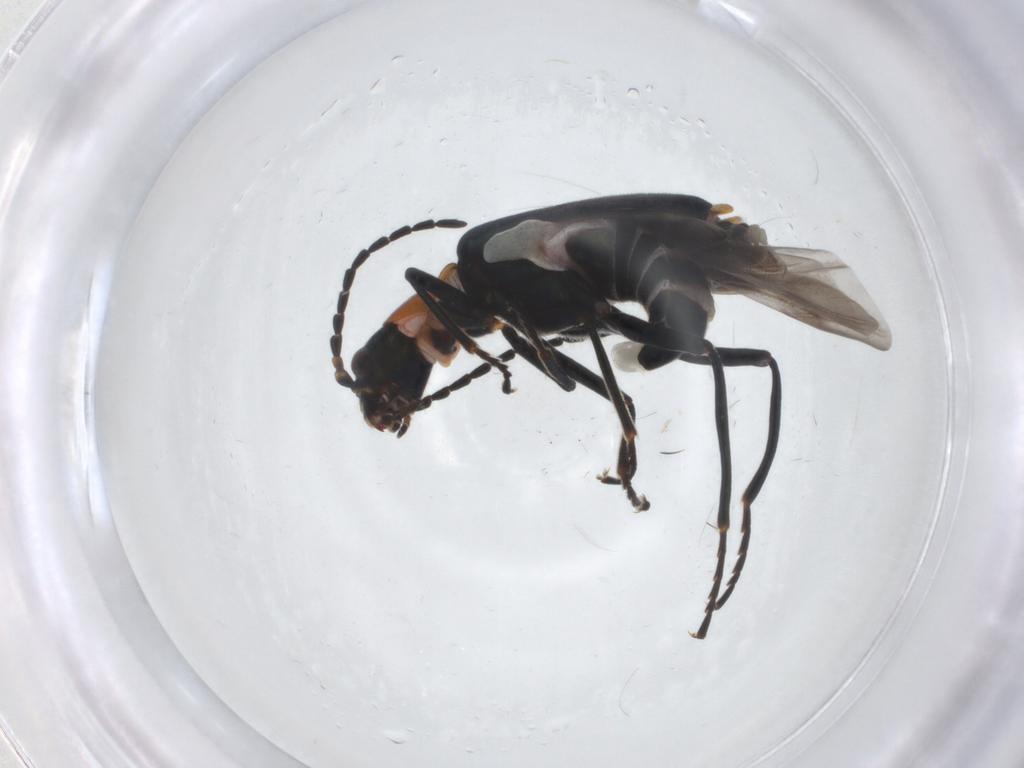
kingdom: Animalia
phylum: Arthropoda
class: Insecta
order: Coleoptera
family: Melyridae
